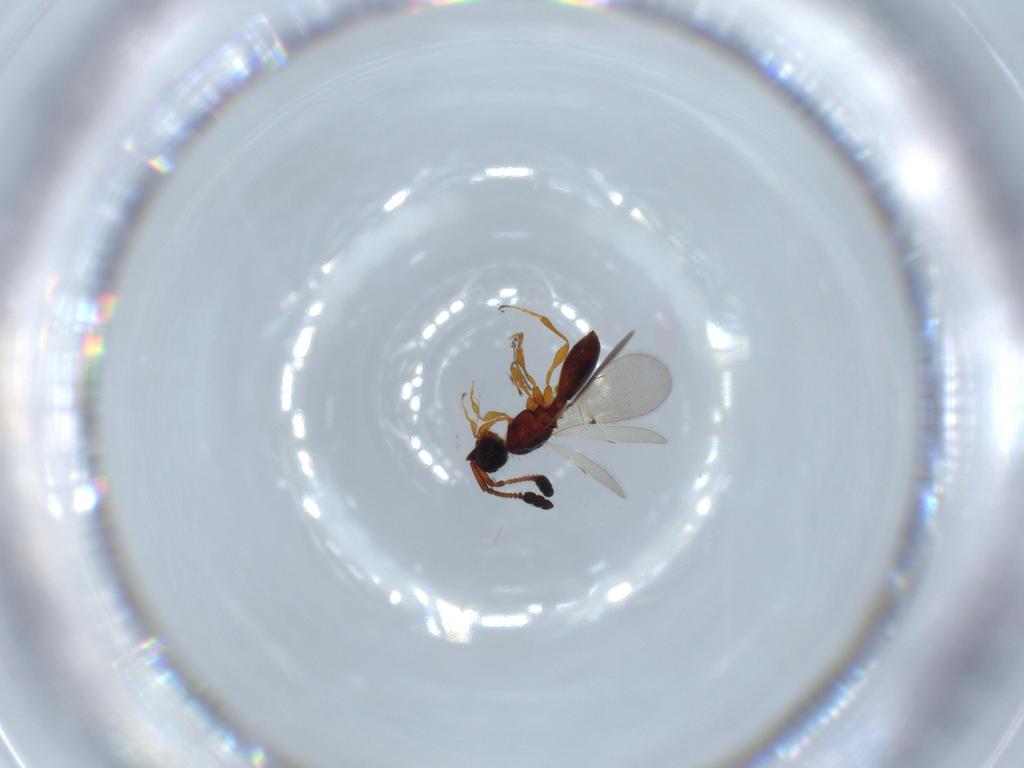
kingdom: Animalia
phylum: Arthropoda
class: Insecta
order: Hymenoptera
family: Diapriidae
